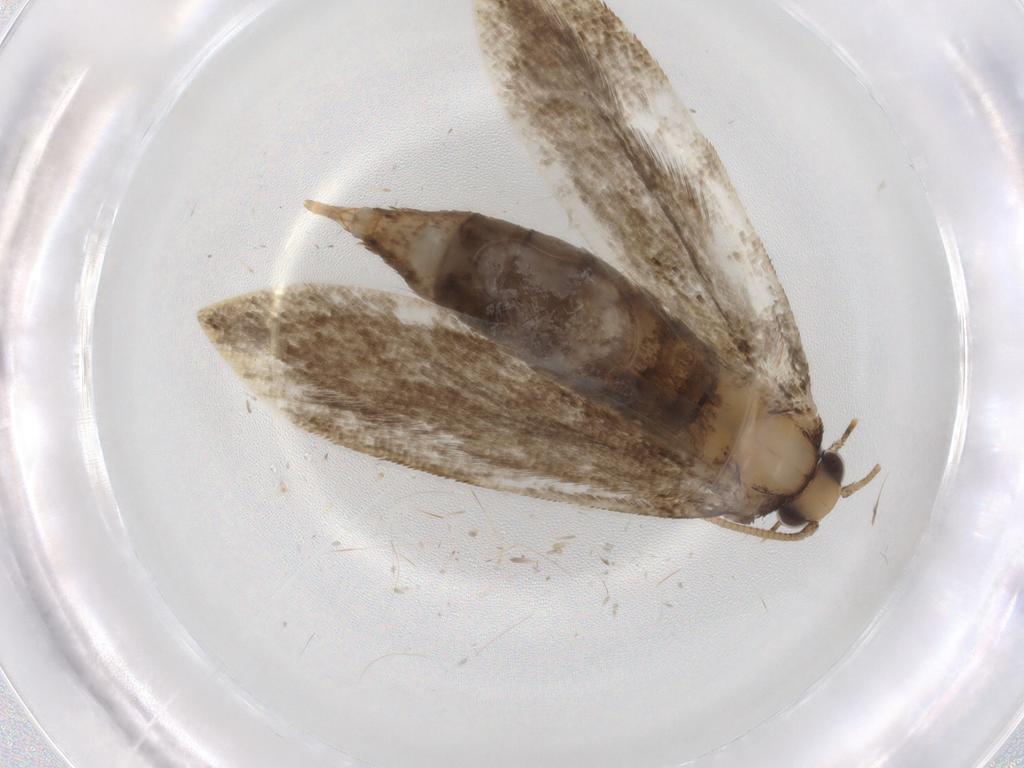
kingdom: Animalia
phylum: Arthropoda
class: Insecta
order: Lepidoptera
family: Tineidae
